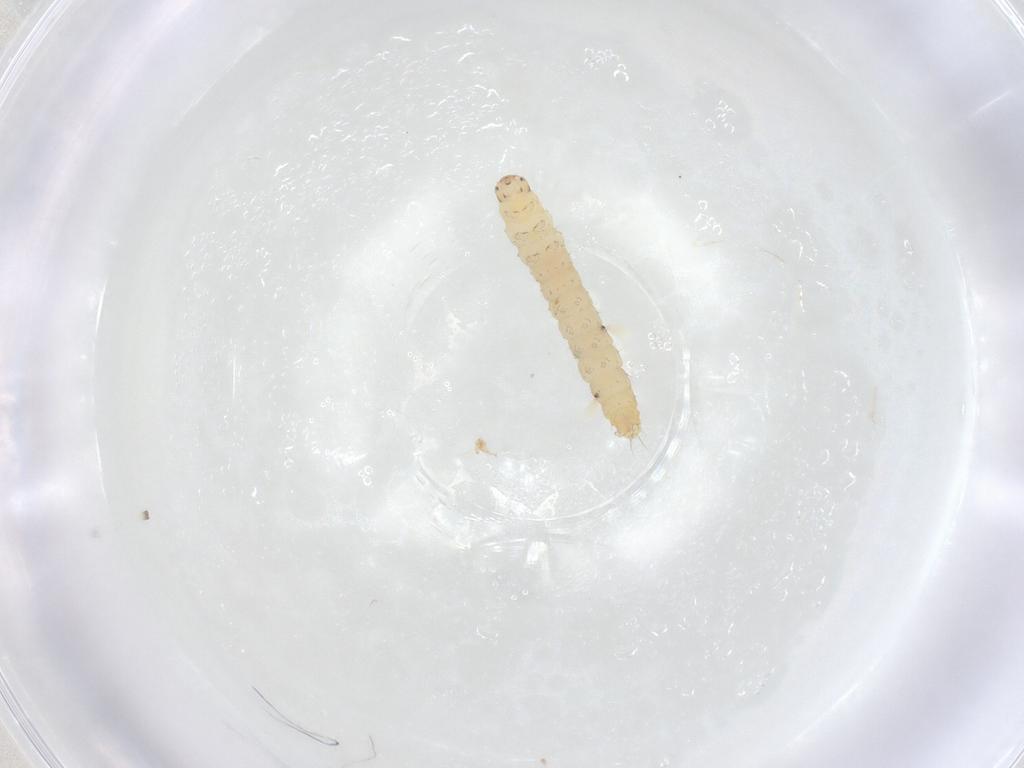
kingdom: Animalia
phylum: Arthropoda
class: Insecta
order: Lepidoptera
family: Gelechiidae
